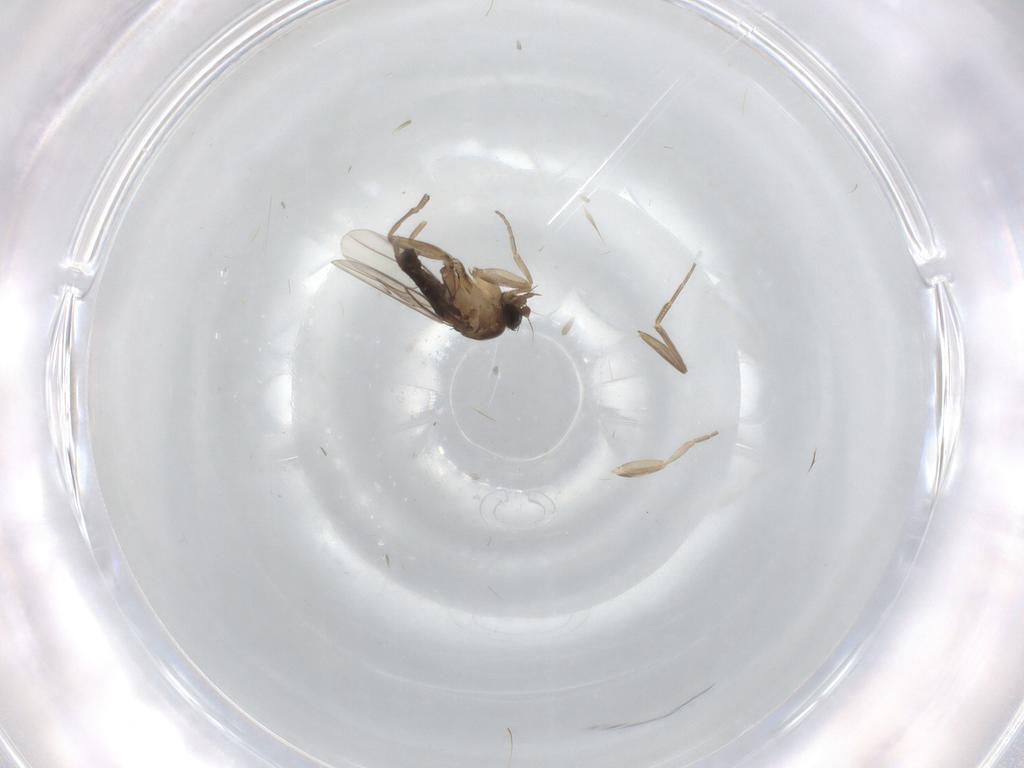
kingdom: Animalia
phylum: Arthropoda
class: Insecta
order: Diptera
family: Phoridae
